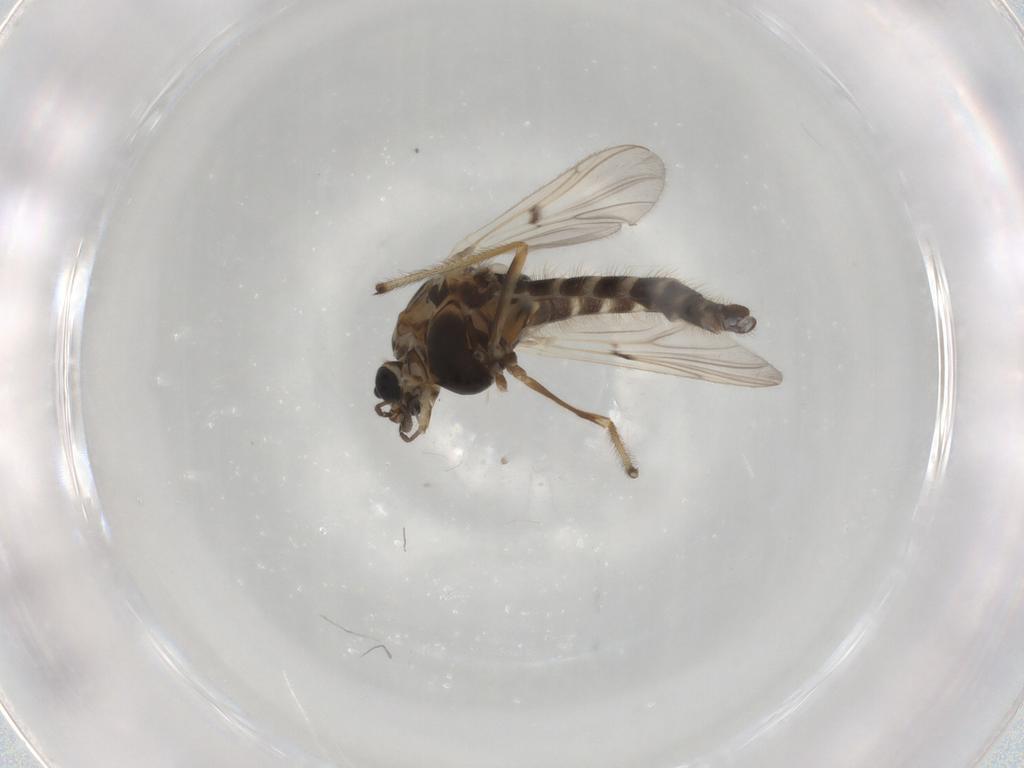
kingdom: Animalia
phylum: Arthropoda
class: Insecta
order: Diptera
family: Chironomidae
